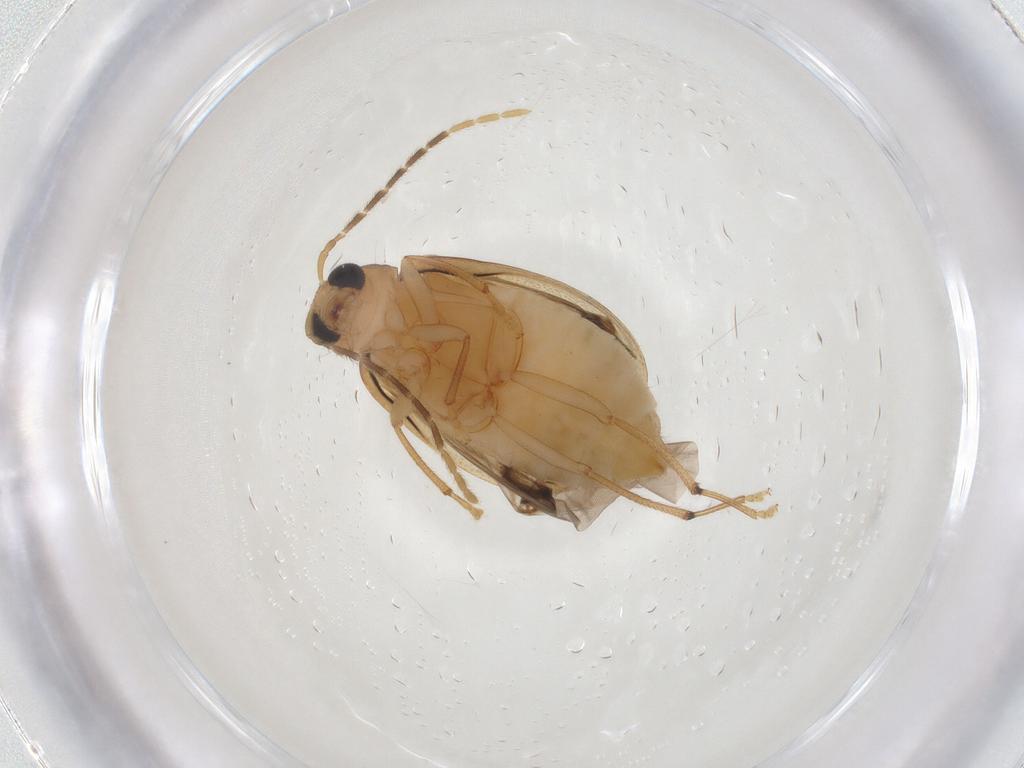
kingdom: Animalia
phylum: Arthropoda
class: Insecta
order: Coleoptera
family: Chrysomelidae
